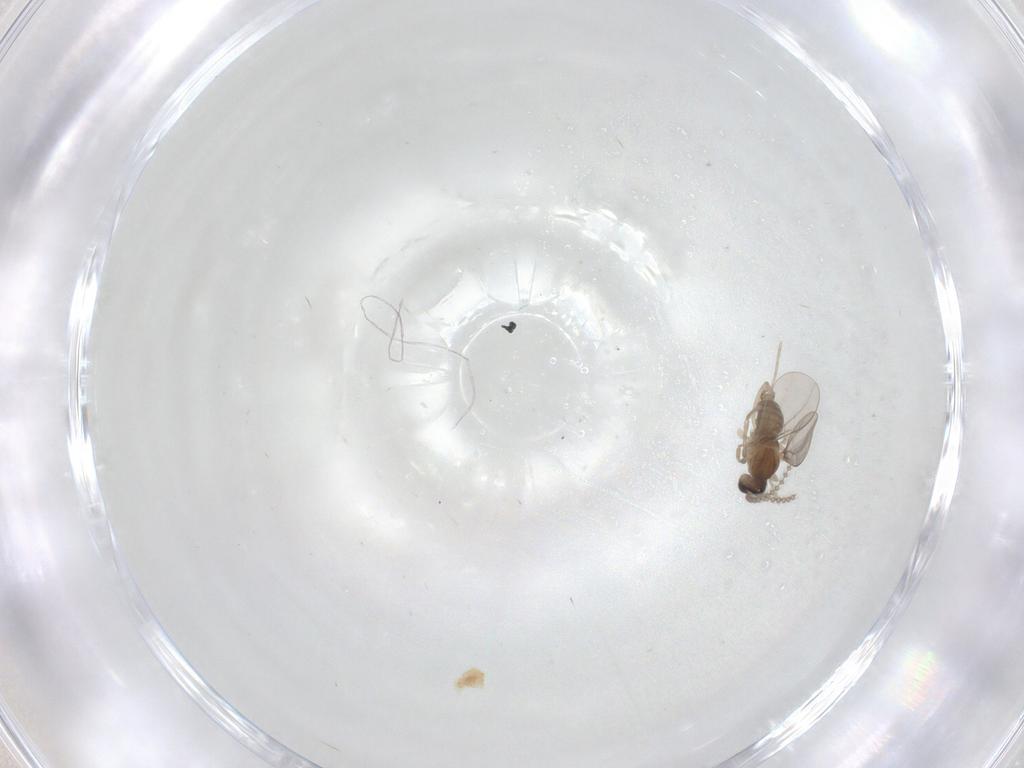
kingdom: Animalia
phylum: Arthropoda
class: Insecta
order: Diptera
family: Cecidomyiidae
